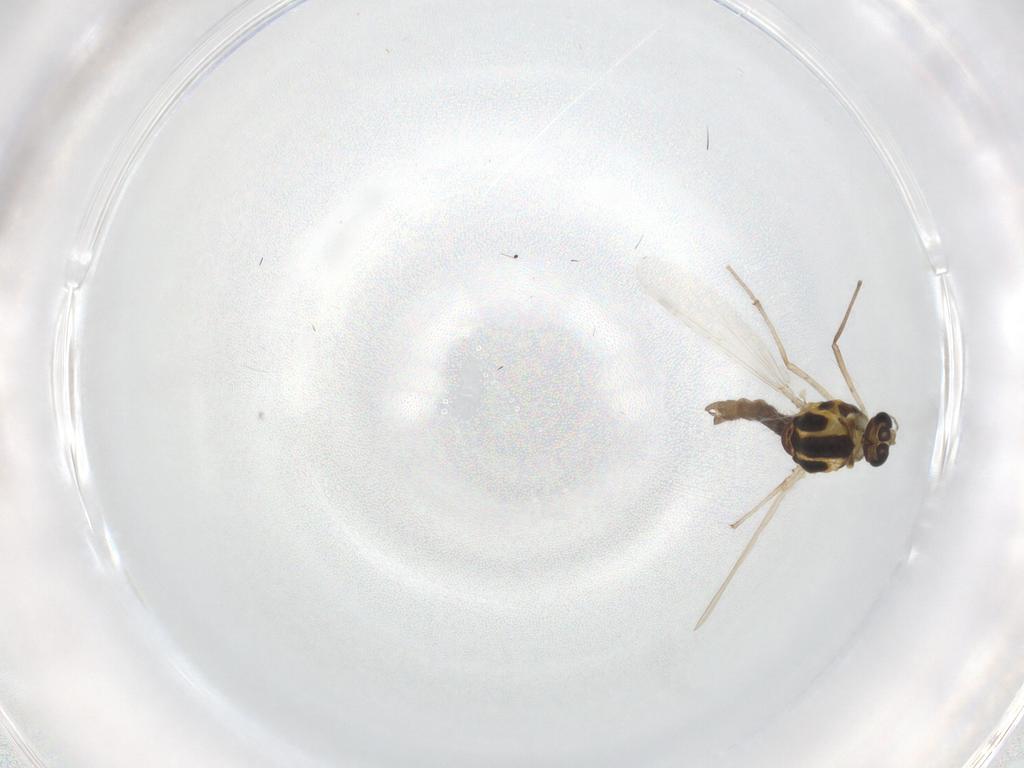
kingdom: Animalia
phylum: Arthropoda
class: Insecta
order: Diptera
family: Chironomidae
